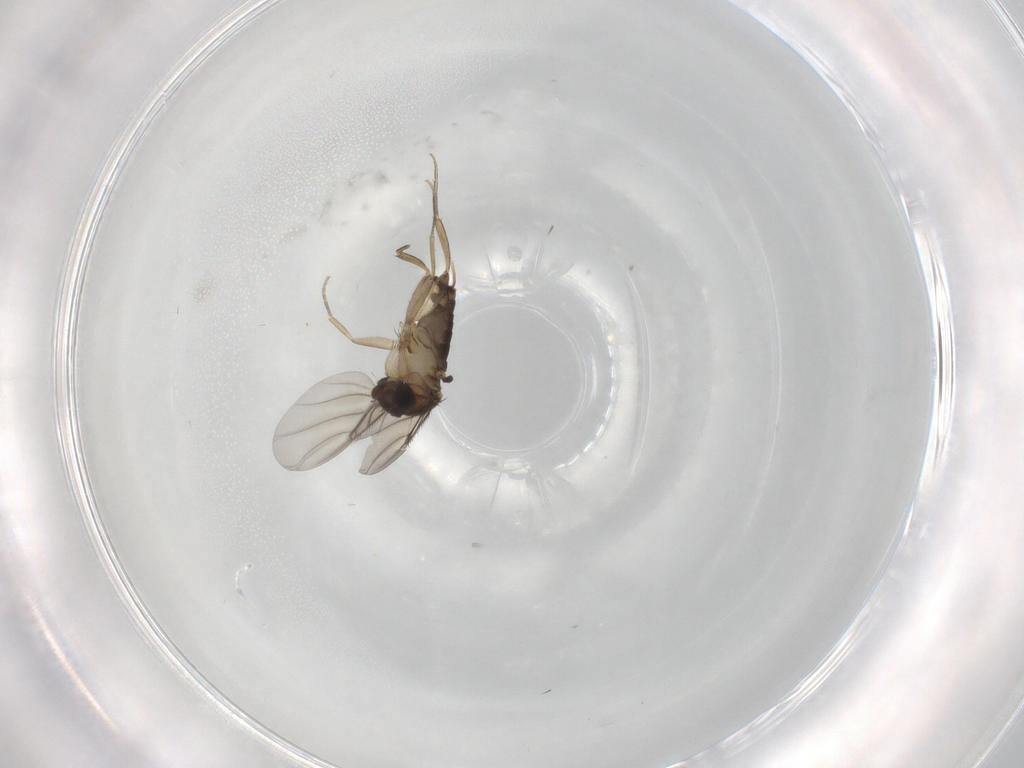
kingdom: Animalia
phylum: Arthropoda
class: Insecta
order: Diptera
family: Phoridae
